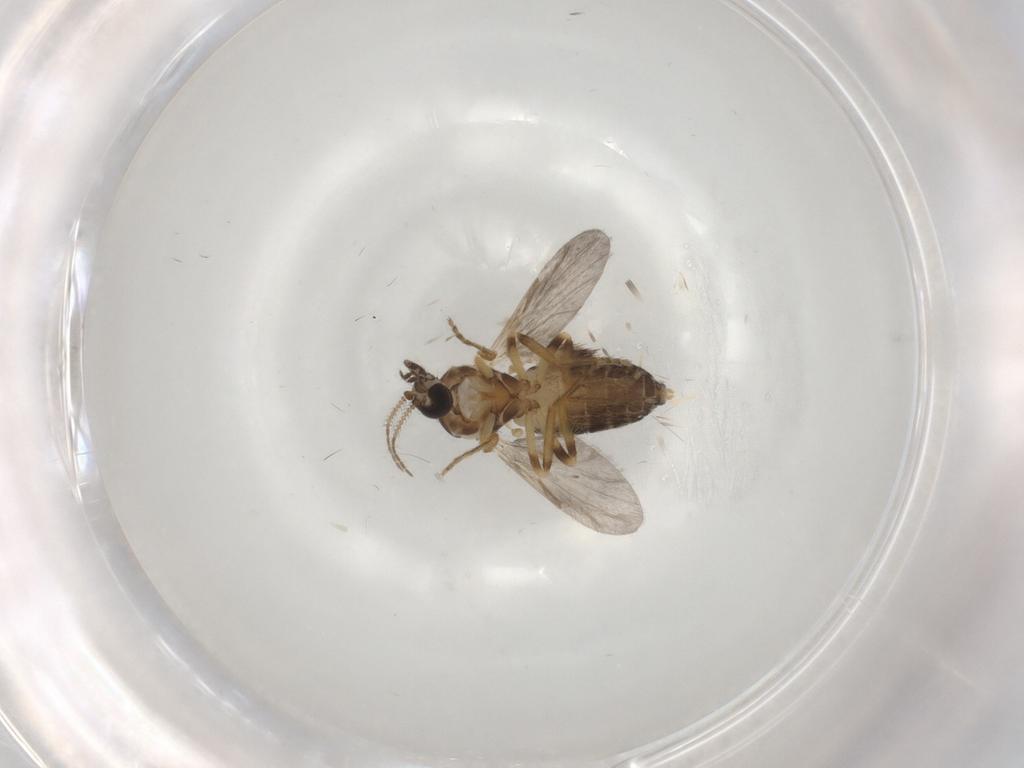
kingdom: Animalia
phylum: Arthropoda
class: Insecta
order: Diptera
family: Ceratopogonidae
